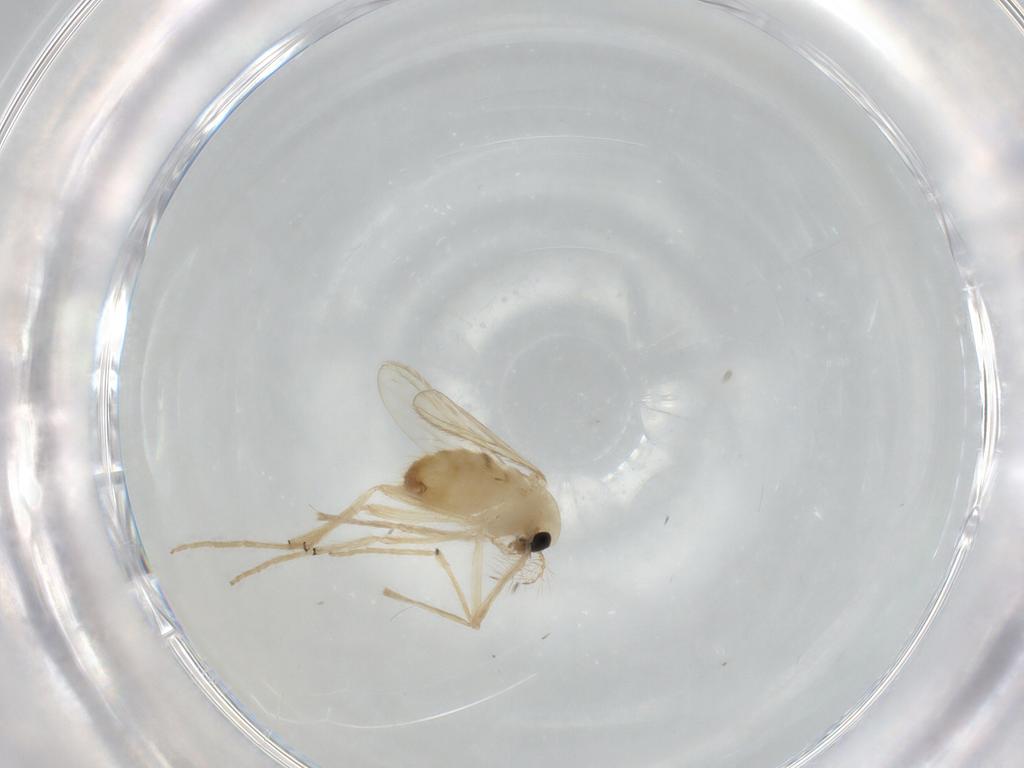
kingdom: Animalia
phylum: Arthropoda
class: Insecta
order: Diptera
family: Chironomidae
